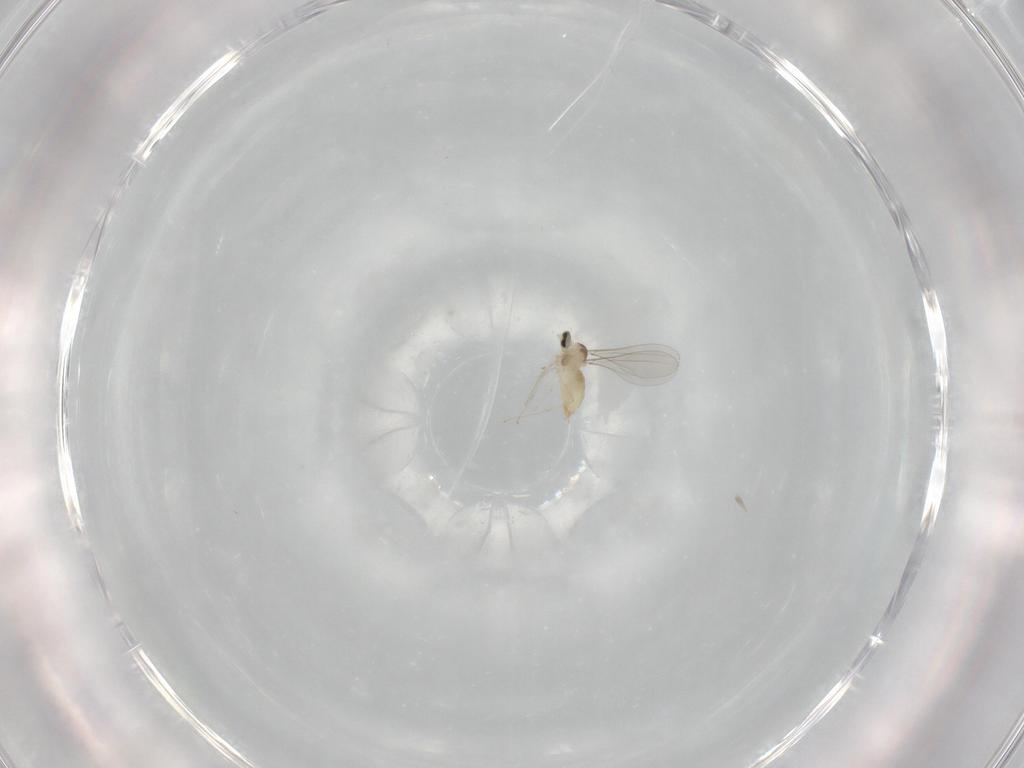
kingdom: Animalia
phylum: Arthropoda
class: Insecta
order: Diptera
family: Cecidomyiidae
